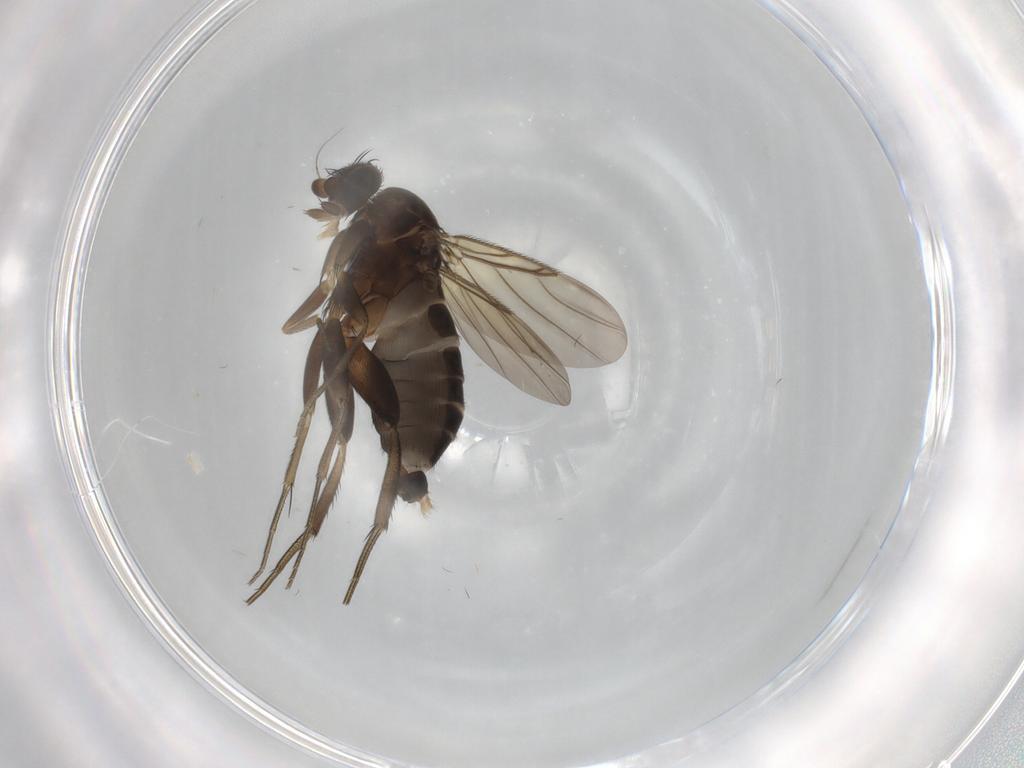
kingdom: Animalia
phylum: Arthropoda
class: Insecta
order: Diptera
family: Phoridae
